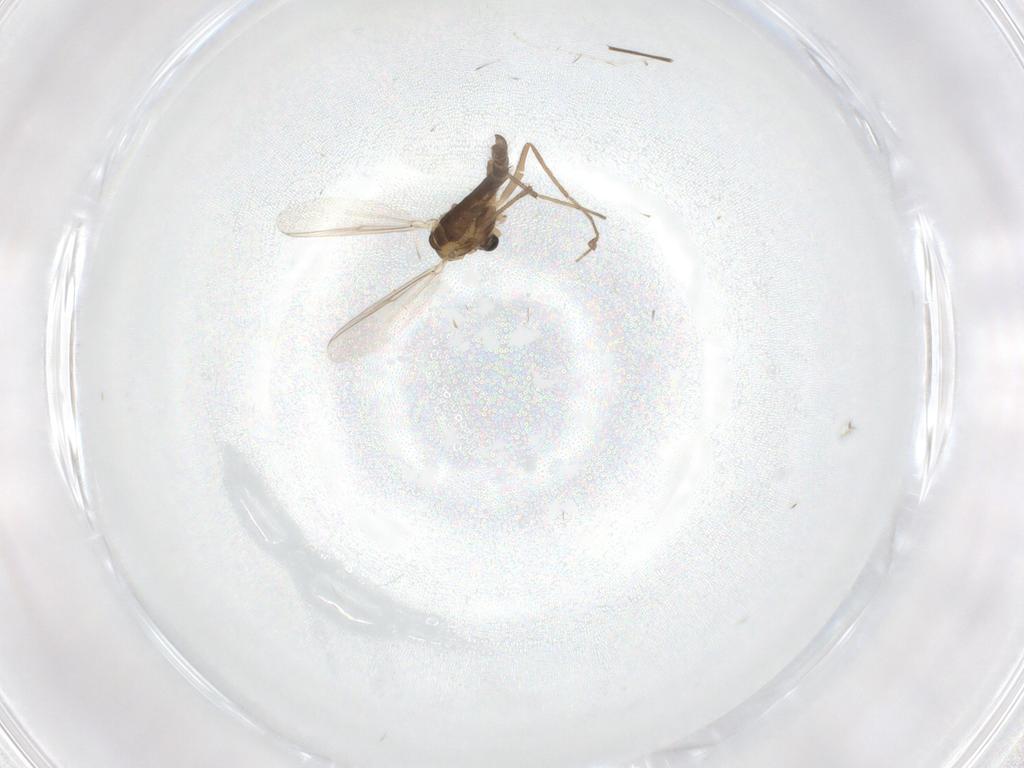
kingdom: Animalia
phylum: Arthropoda
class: Insecta
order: Diptera
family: Chironomidae
